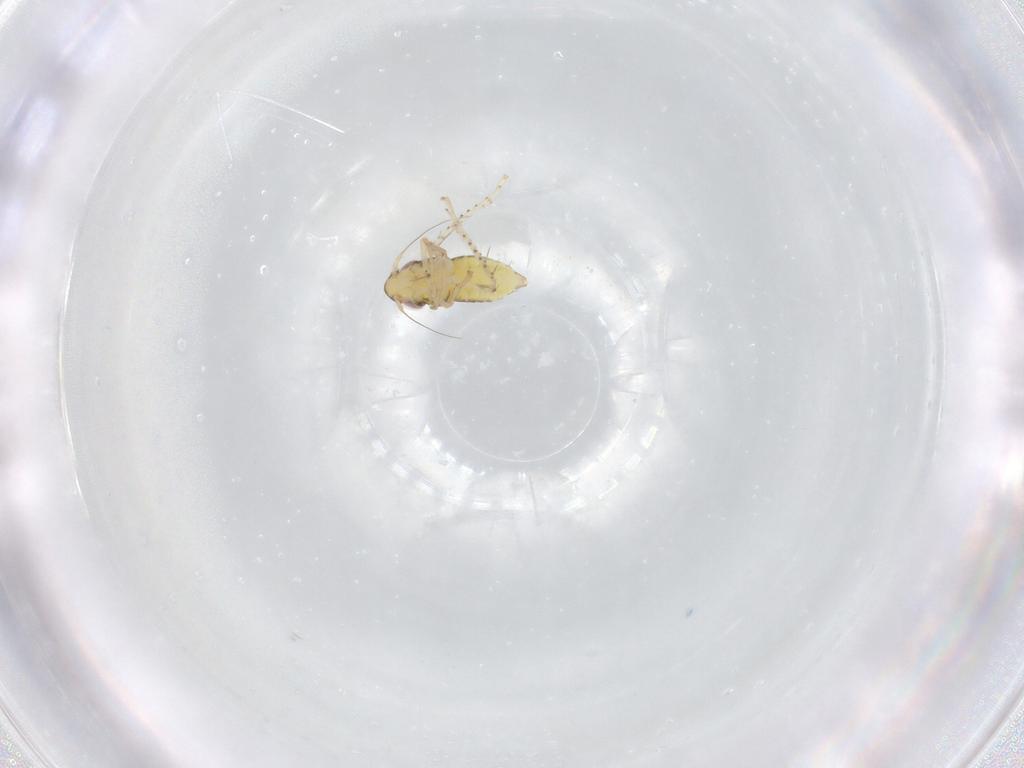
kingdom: Animalia
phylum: Arthropoda
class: Insecta
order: Hemiptera
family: Cicadellidae
